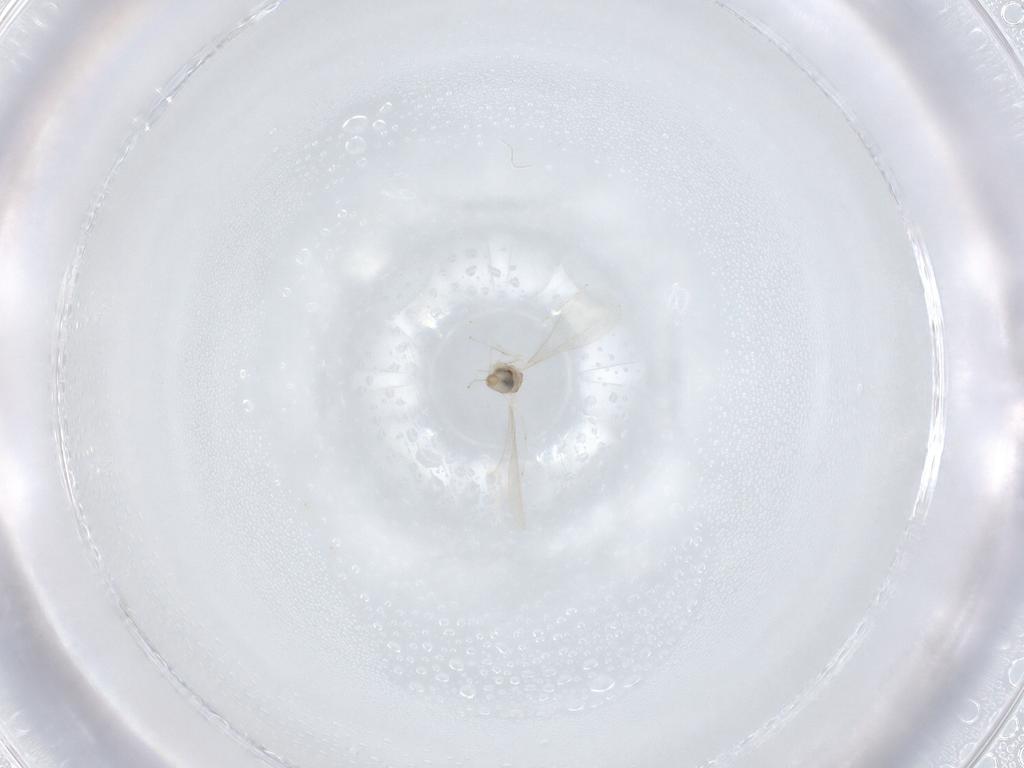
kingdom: Animalia
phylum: Arthropoda
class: Insecta
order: Diptera
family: Cecidomyiidae
